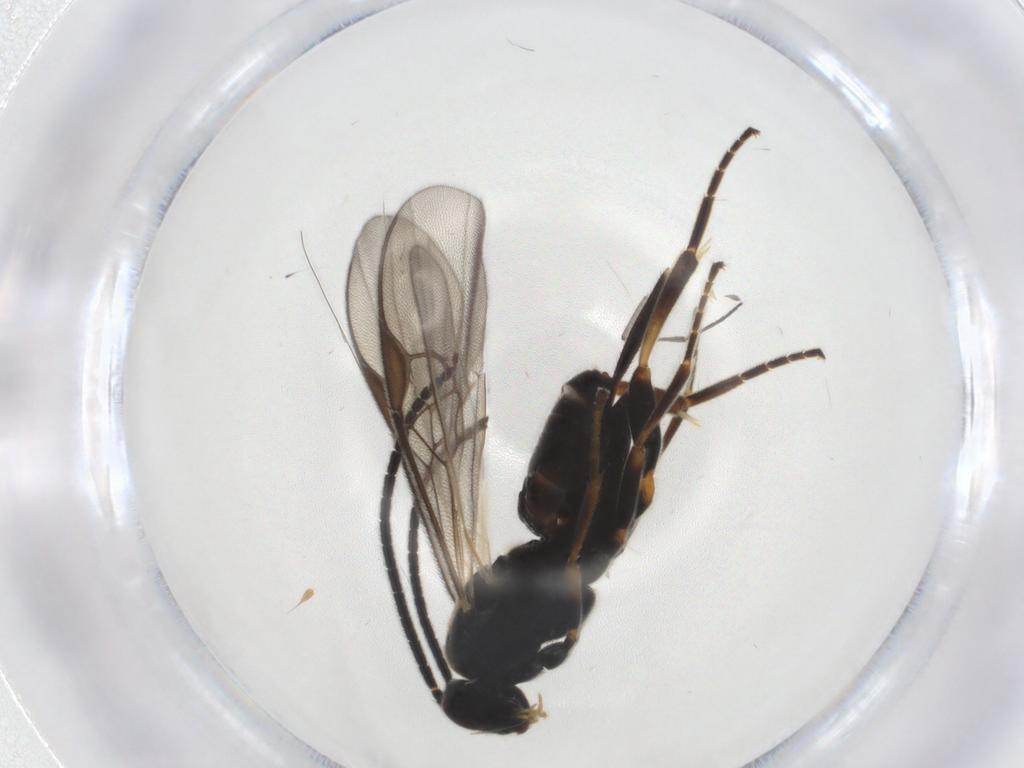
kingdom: Animalia
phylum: Arthropoda
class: Insecta
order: Hymenoptera
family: Braconidae
